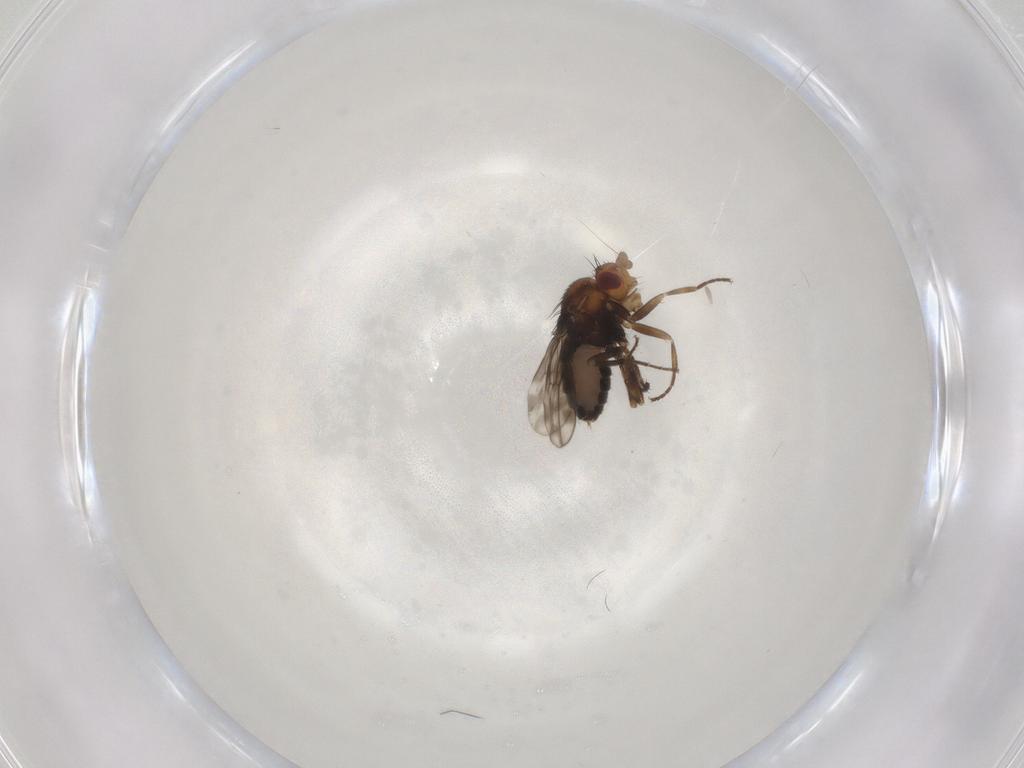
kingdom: Animalia
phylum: Arthropoda
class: Insecta
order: Diptera
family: Sphaeroceridae
